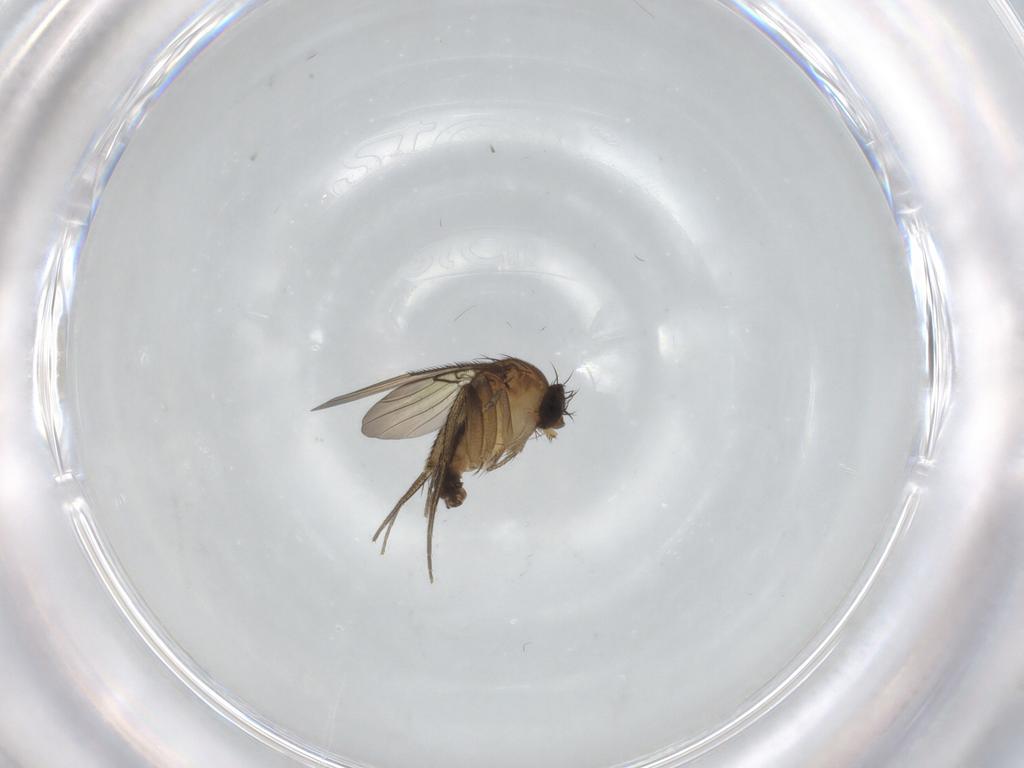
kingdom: Animalia
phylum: Arthropoda
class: Insecta
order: Diptera
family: Phoridae
